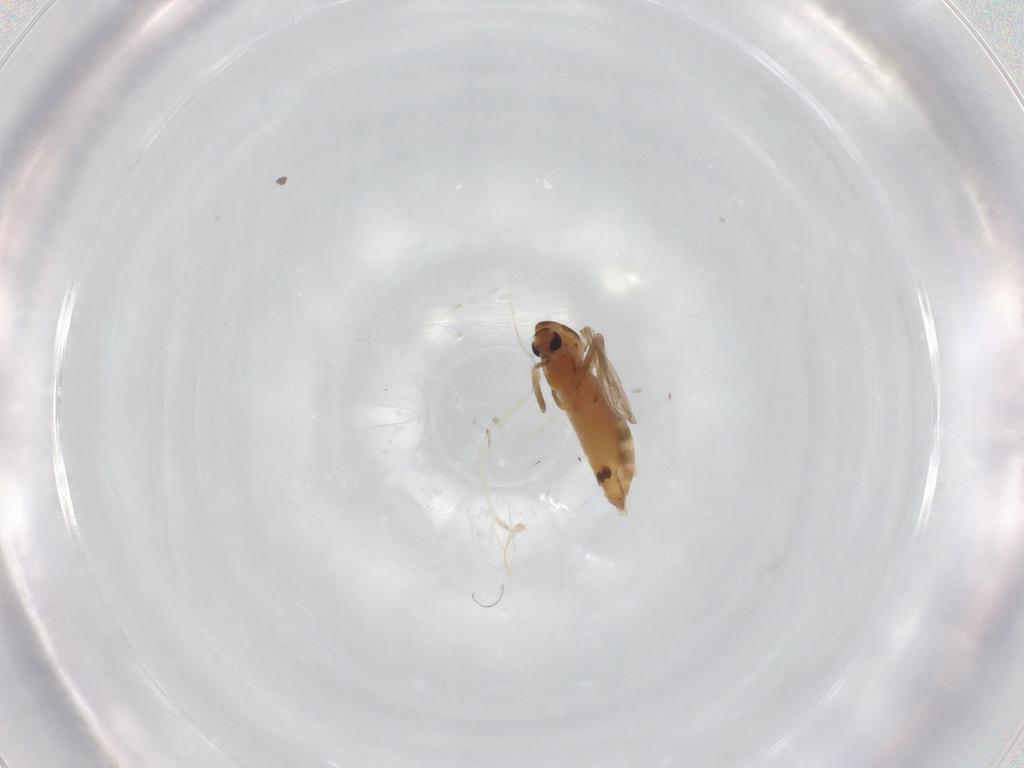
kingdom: Animalia
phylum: Arthropoda
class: Insecta
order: Diptera
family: Chironomidae
